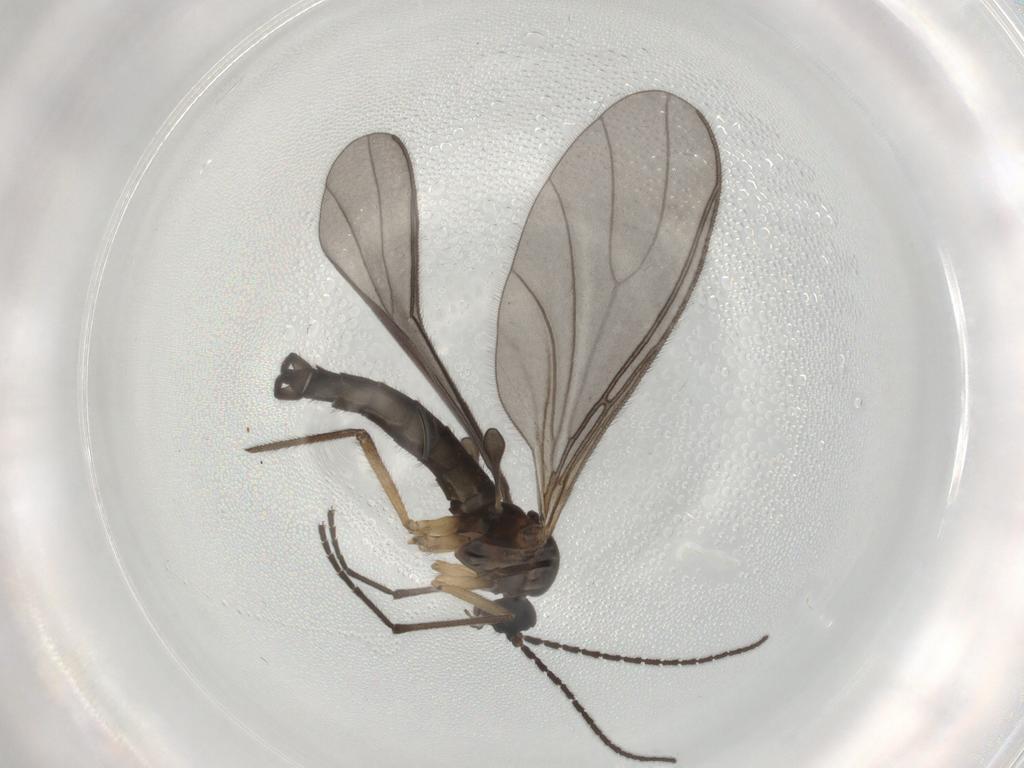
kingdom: Animalia
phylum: Arthropoda
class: Insecta
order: Diptera
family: Sciaridae
